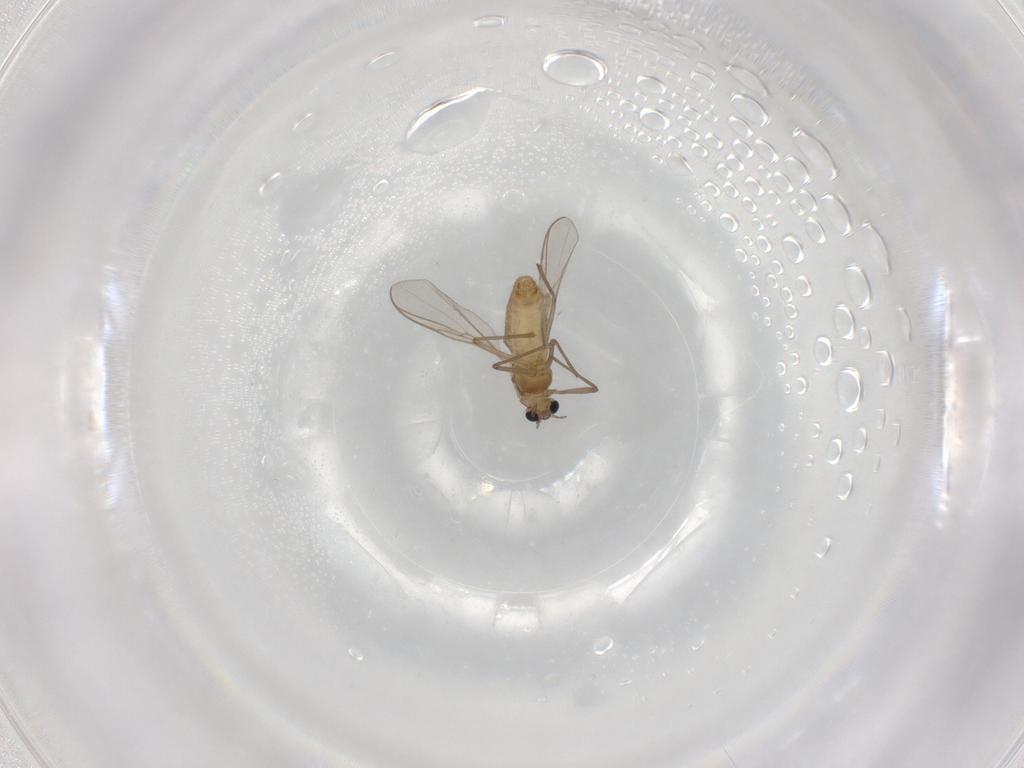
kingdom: Animalia
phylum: Arthropoda
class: Insecta
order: Diptera
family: Chironomidae
